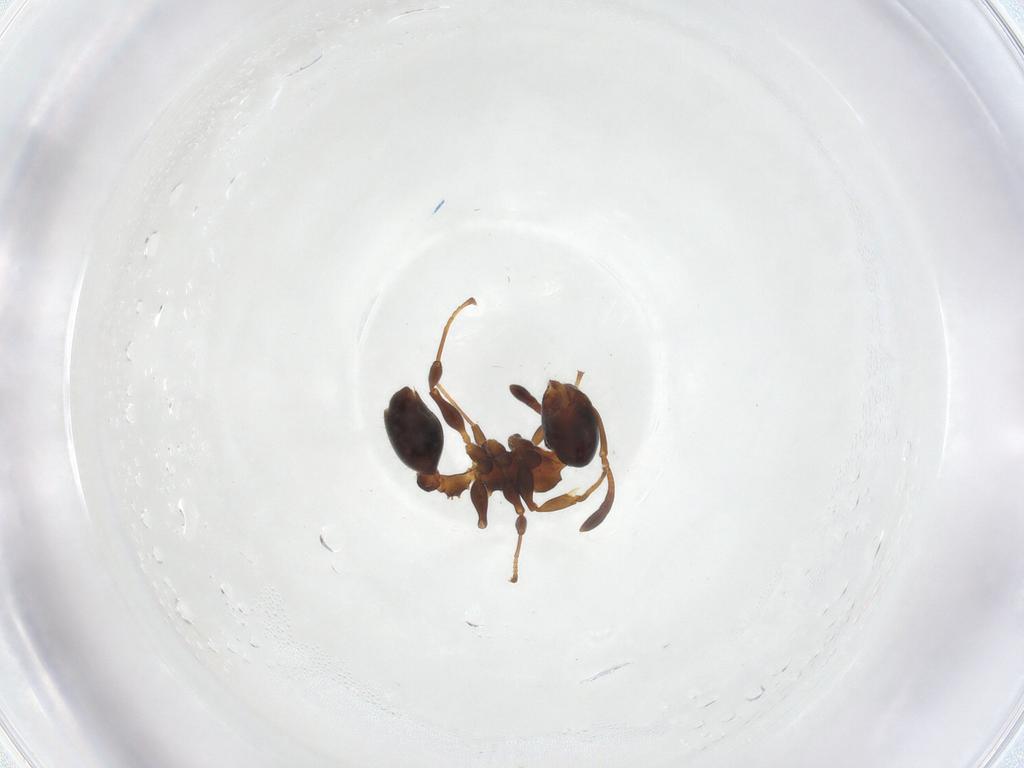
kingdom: Animalia
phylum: Arthropoda
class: Insecta
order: Hymenoptera
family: Formicidae
